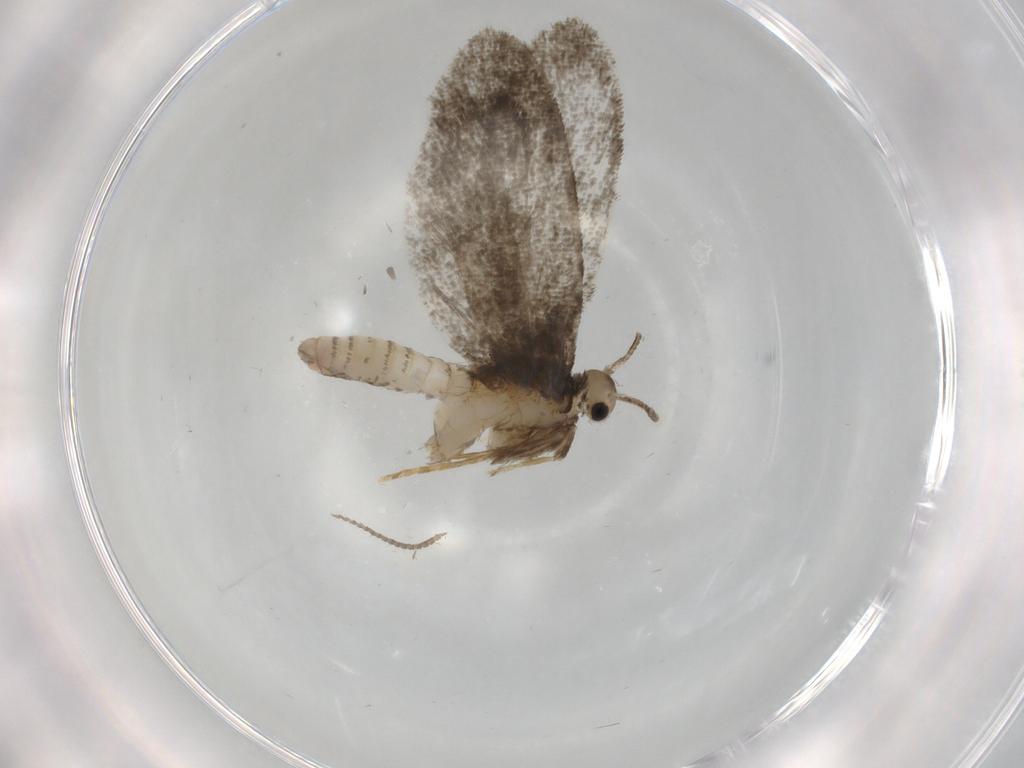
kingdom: Animalia
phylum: Arthropoda
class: Insecta
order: Lepidoptera
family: Psychidae
